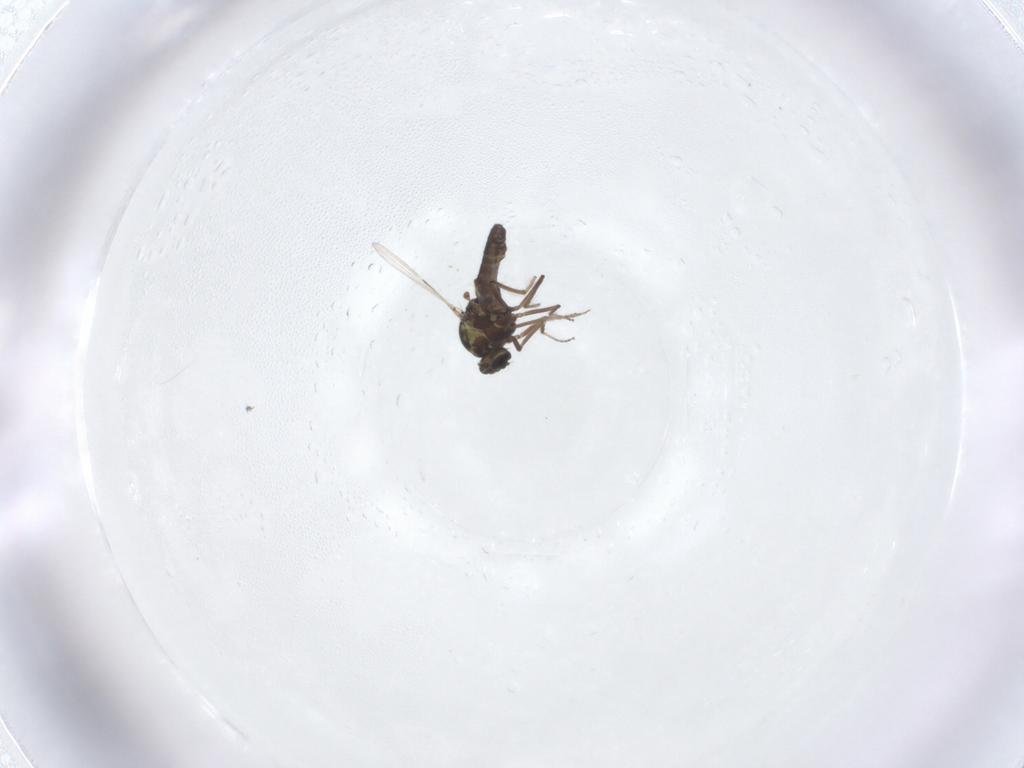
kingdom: Animalia
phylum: Arthropoda
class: Insecta
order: Diptera
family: Ceratopogonidae
